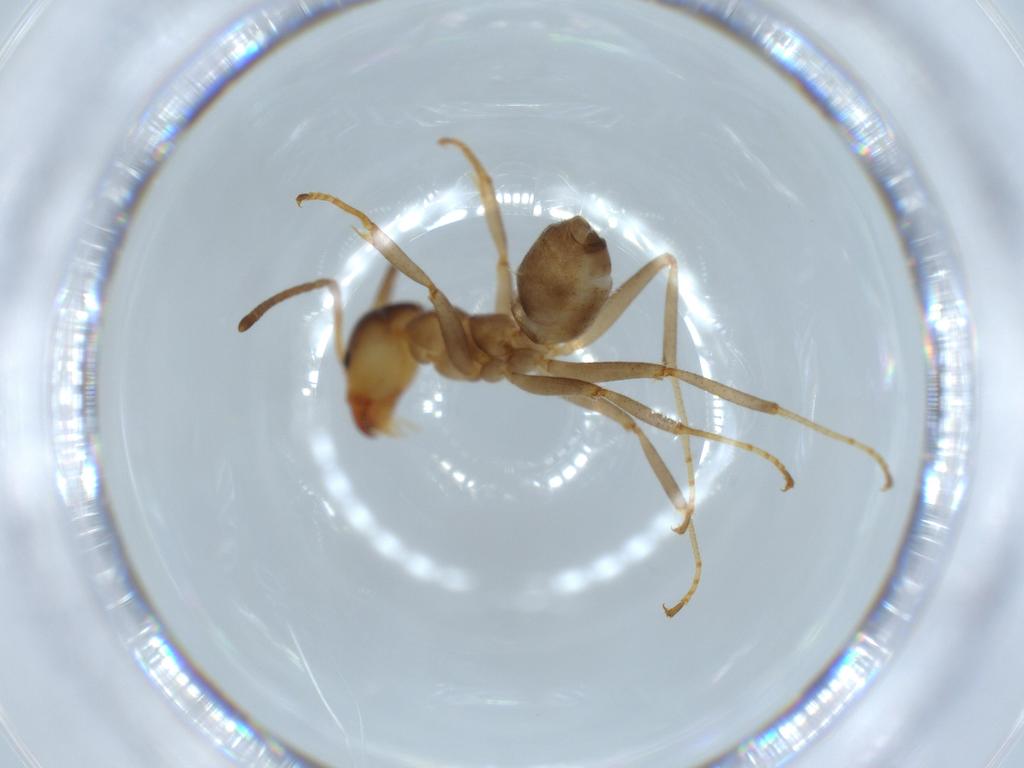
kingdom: Animalia
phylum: Arthropoda
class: Insecta
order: Hymenoptera
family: Formicidae
